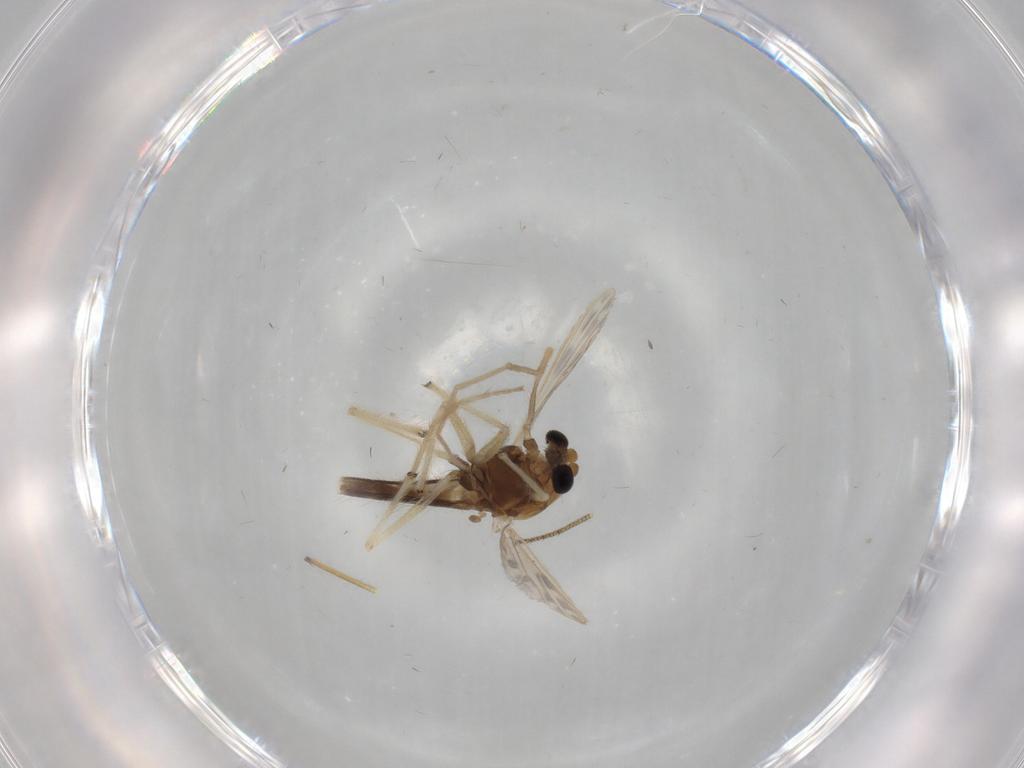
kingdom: Animalia
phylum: Arthropoda
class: Insecta
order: Diptera
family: Chironomidae
